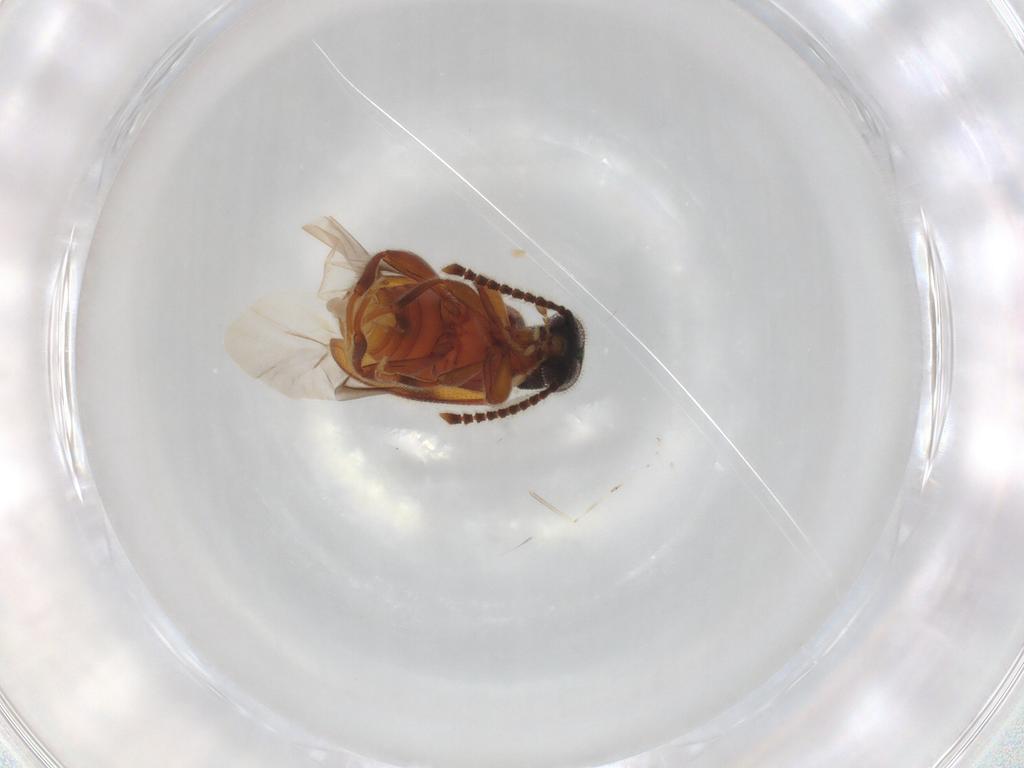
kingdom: Animalia
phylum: Arthropoda
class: Insecta
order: Coleoptera
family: Aderidae
